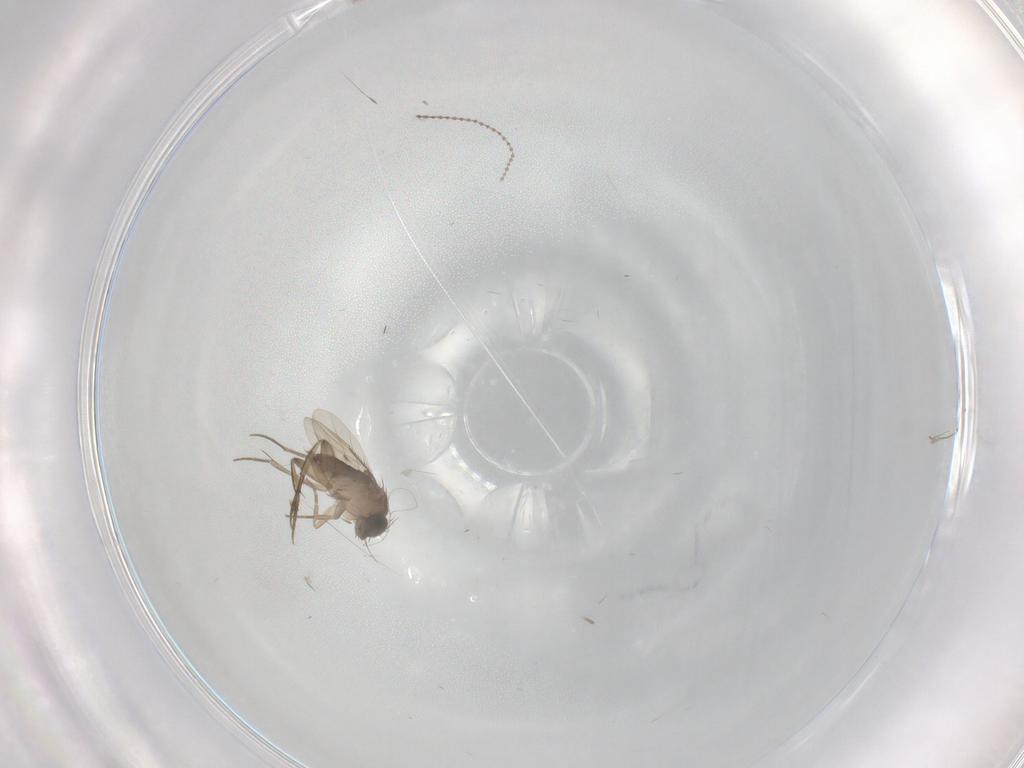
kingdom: Animalia
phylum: Arthropoda
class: Insecta
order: Diptera
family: Phoridae
